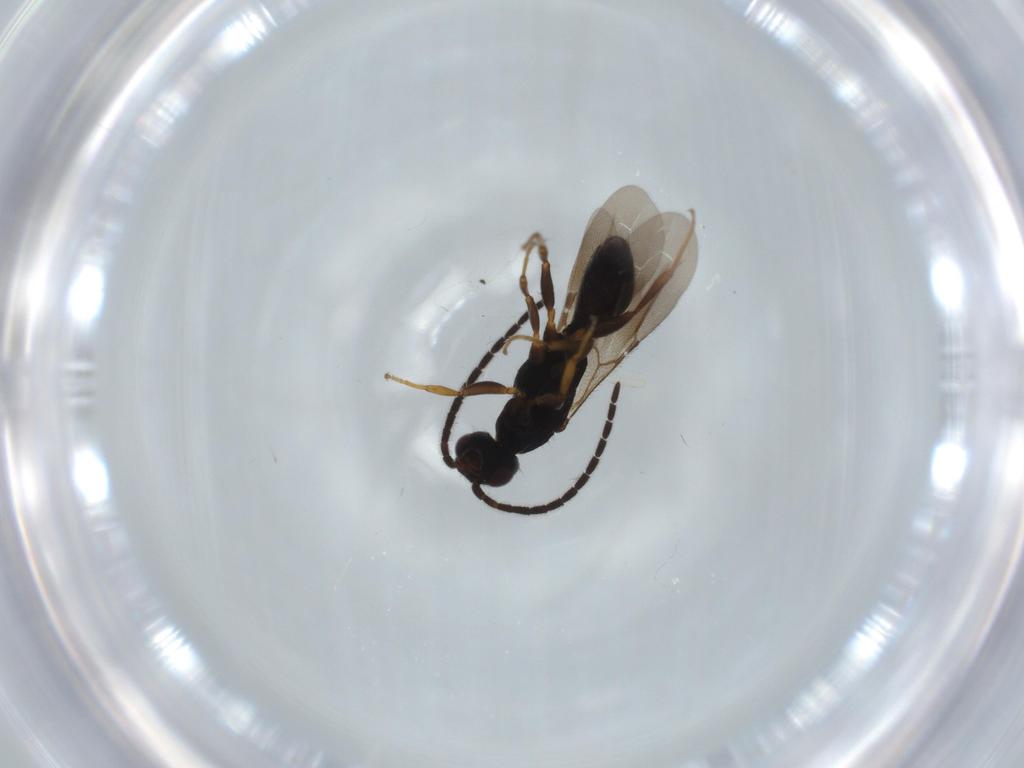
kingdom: Animalia
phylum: Arthropoda
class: Insecta
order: Hymenoptera
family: Bethylidae
